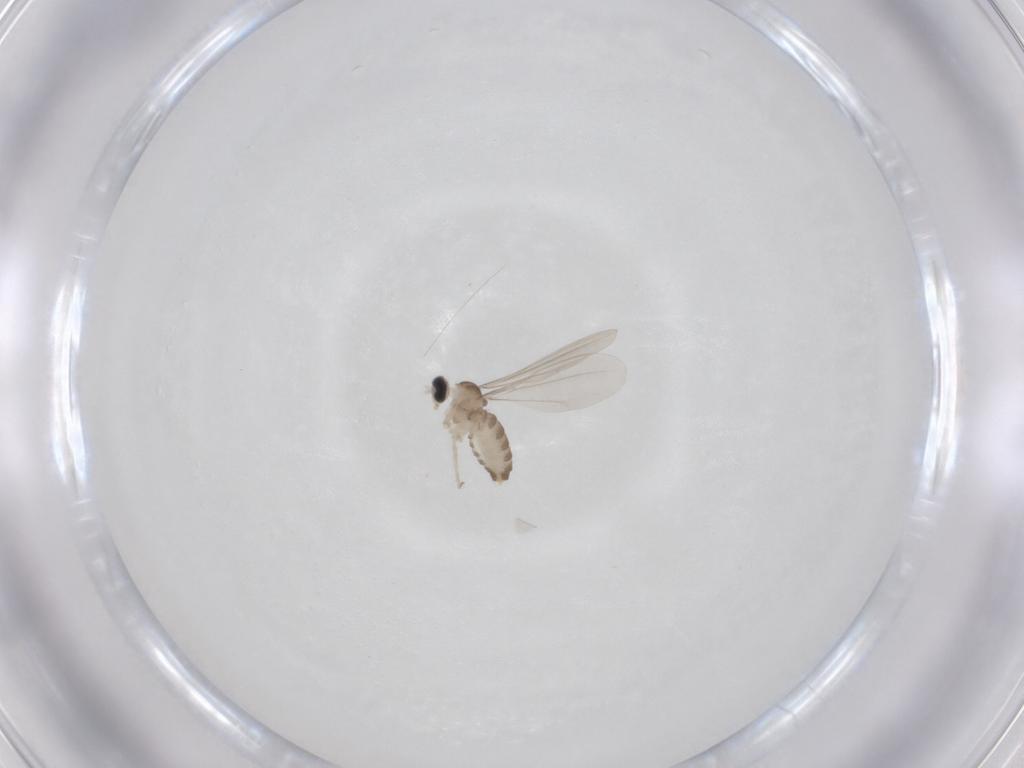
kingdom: Animalia
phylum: Arthropoda
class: Insecta
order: Diptera
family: Cecidomyiidae
